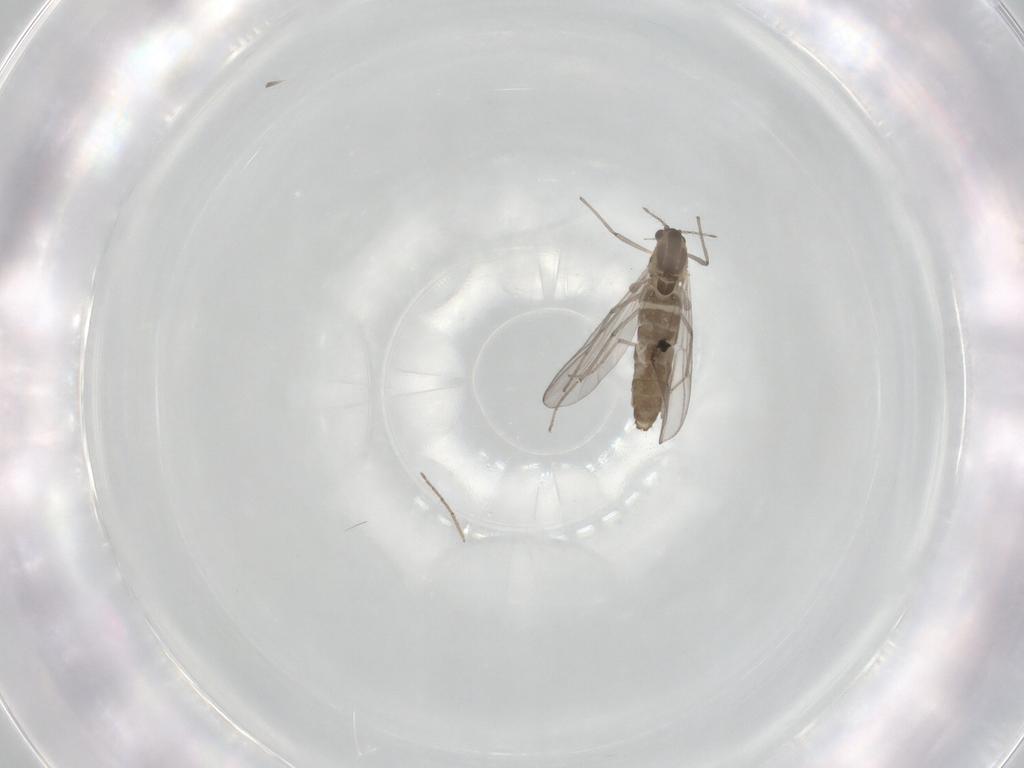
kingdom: Animalia
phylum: Arthropoda
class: Insecta
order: Diptera
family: Chironomidae
